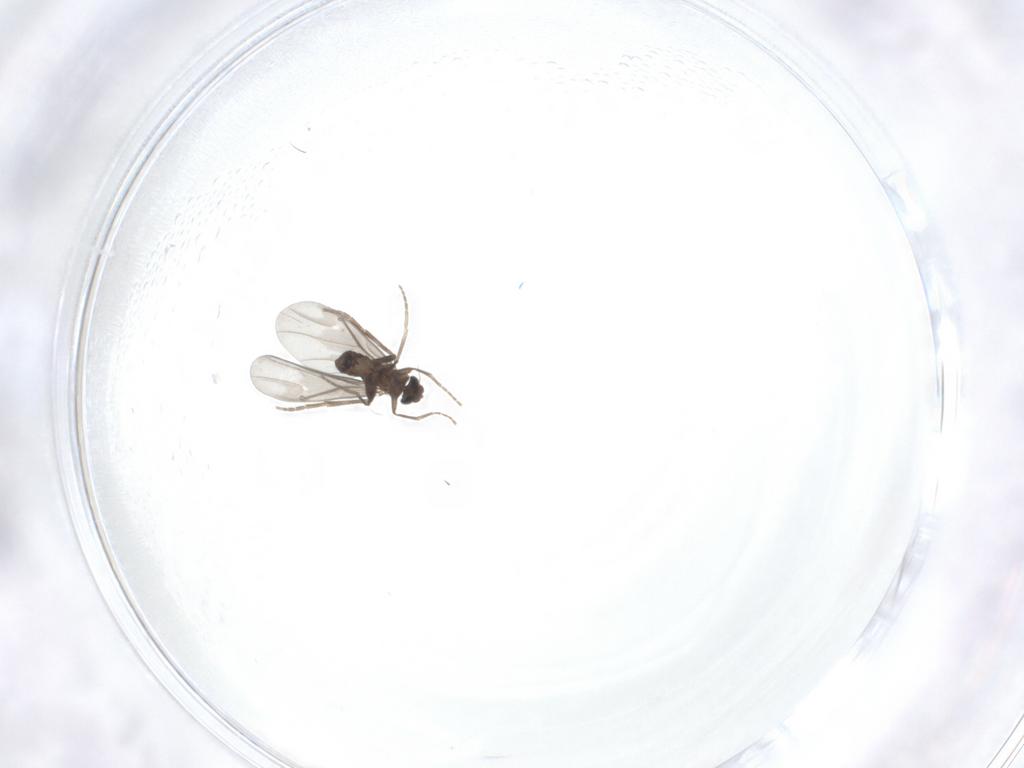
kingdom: Animalia
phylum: Arthropoda
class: Insecta
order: Diptera
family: Phoridae
